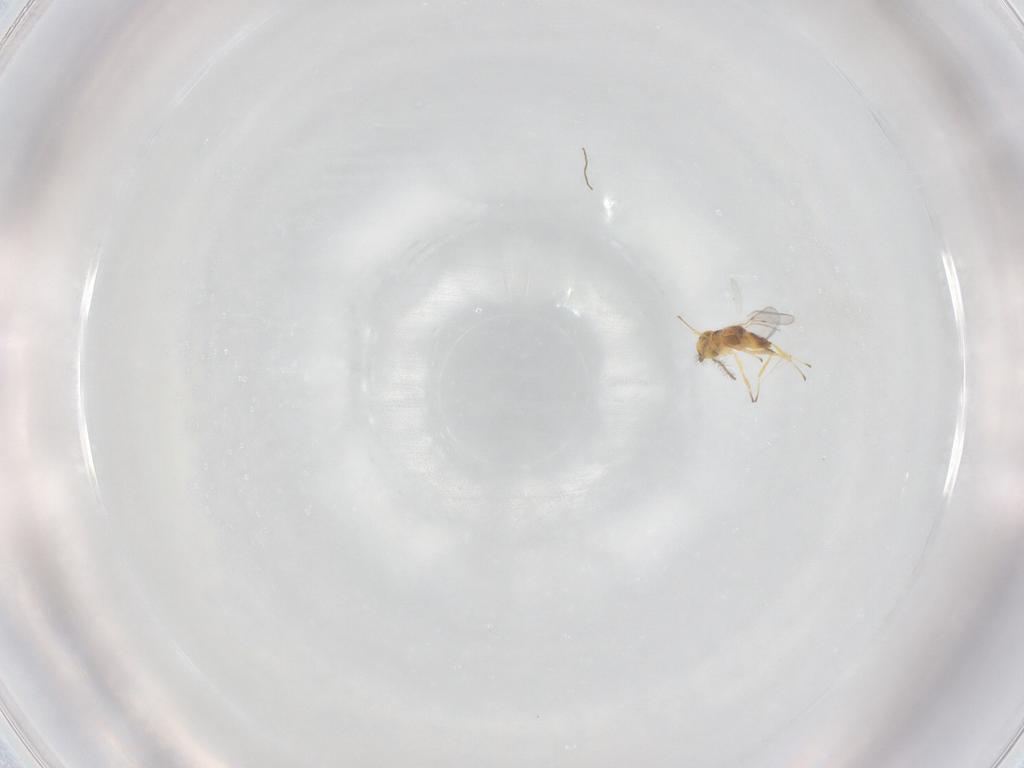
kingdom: Animalia
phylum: Arthropoda
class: Insecta
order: Hymenoptera
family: Encyrtidae
